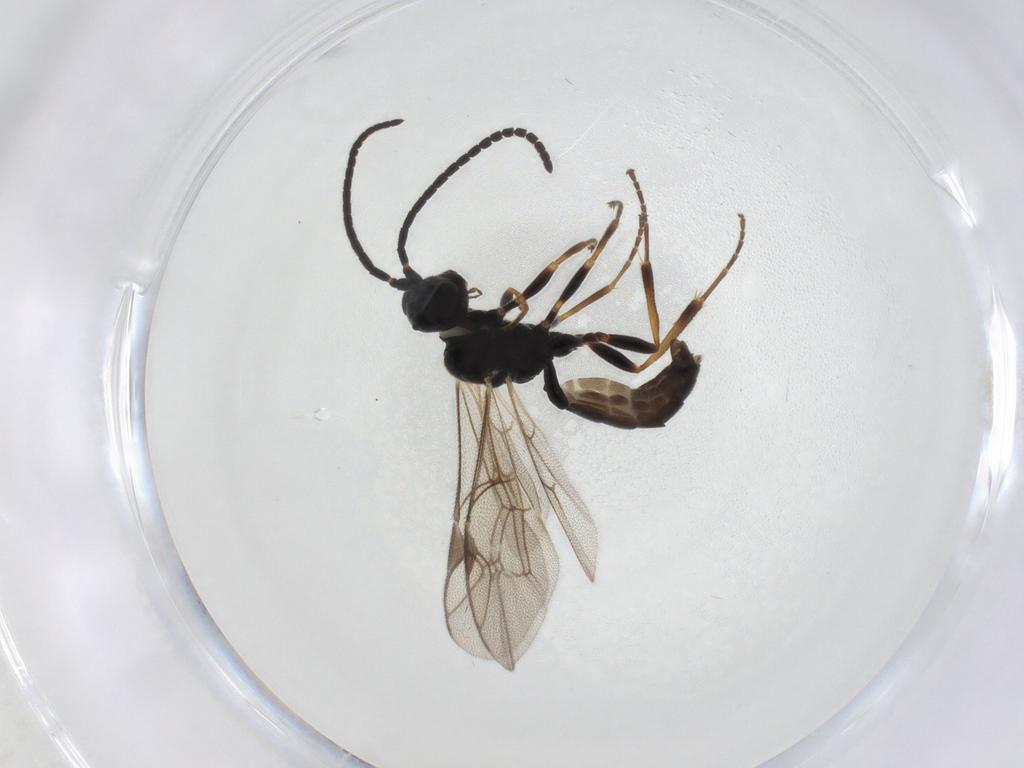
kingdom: Animalia
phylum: Arthropoda
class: Insecta
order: Hymenoptera
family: Ichneumonidae
